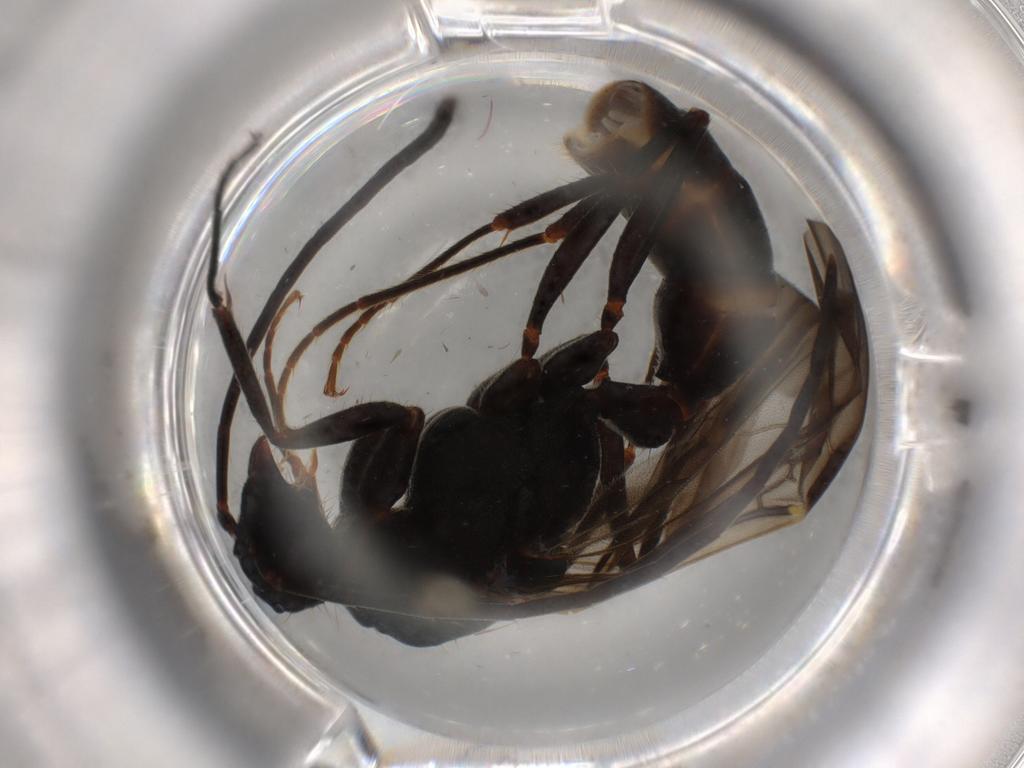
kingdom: Animalia
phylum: Arthropoda
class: Insecta
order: Hymenoptera
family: Formicidae
